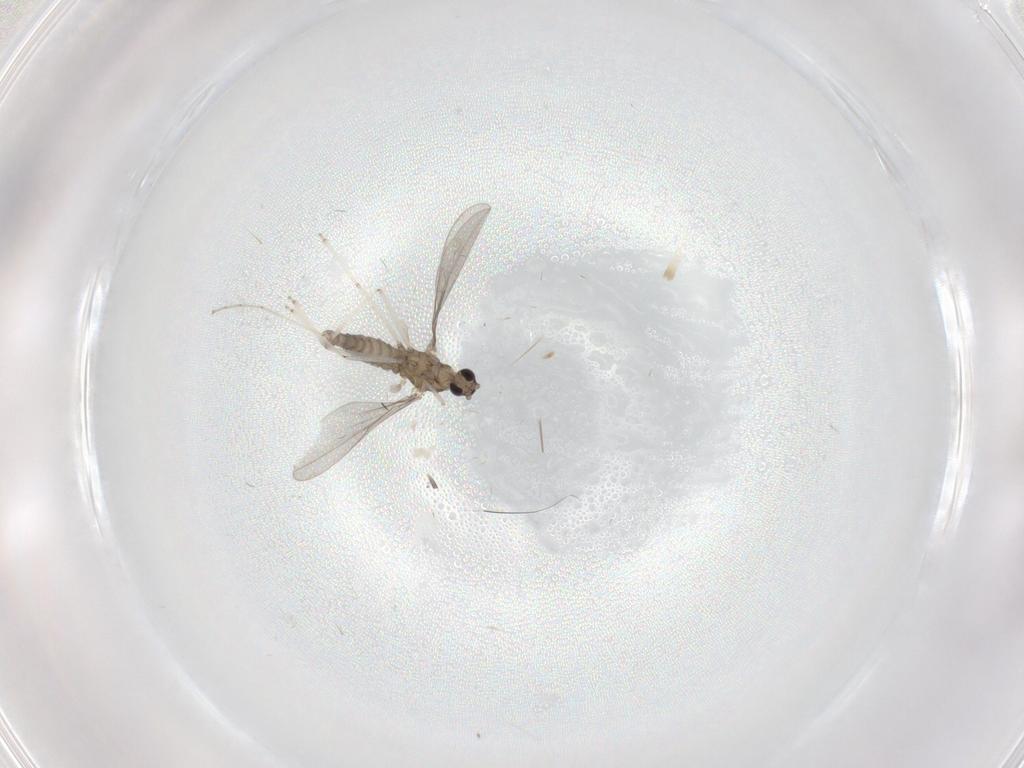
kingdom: Animalia
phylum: Arthropoda
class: Insecta
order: Diptera
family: Cecidomyiidae
